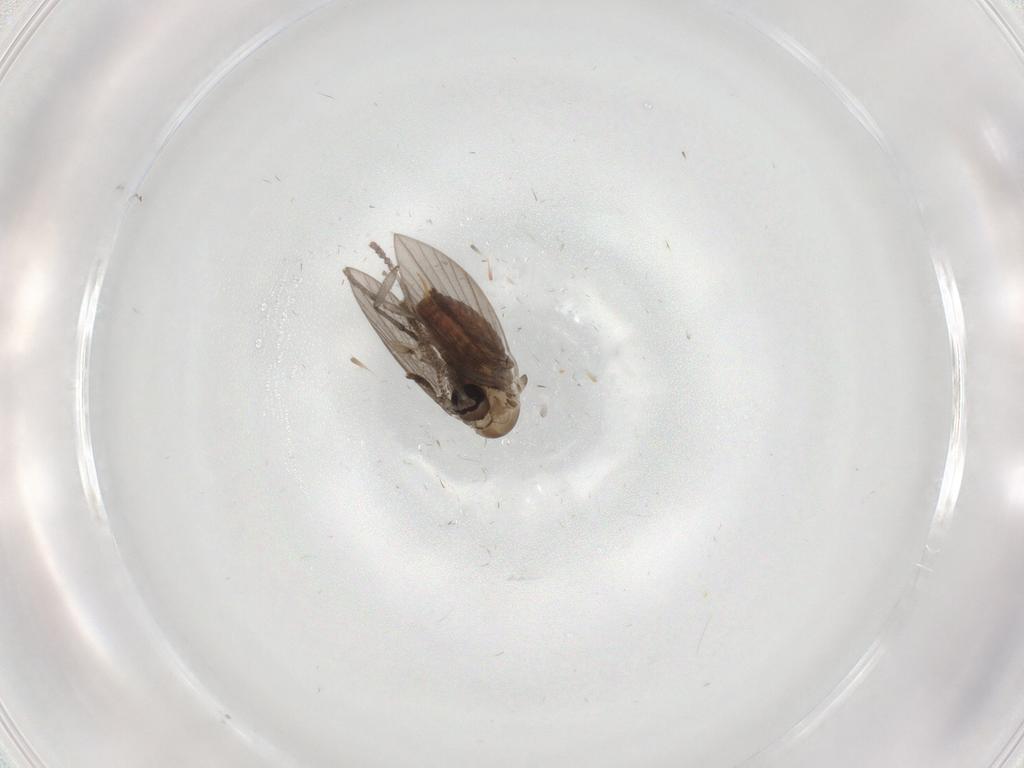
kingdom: Animalia
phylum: Arthropoda
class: Insecta
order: Diptera
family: Psychodidae
